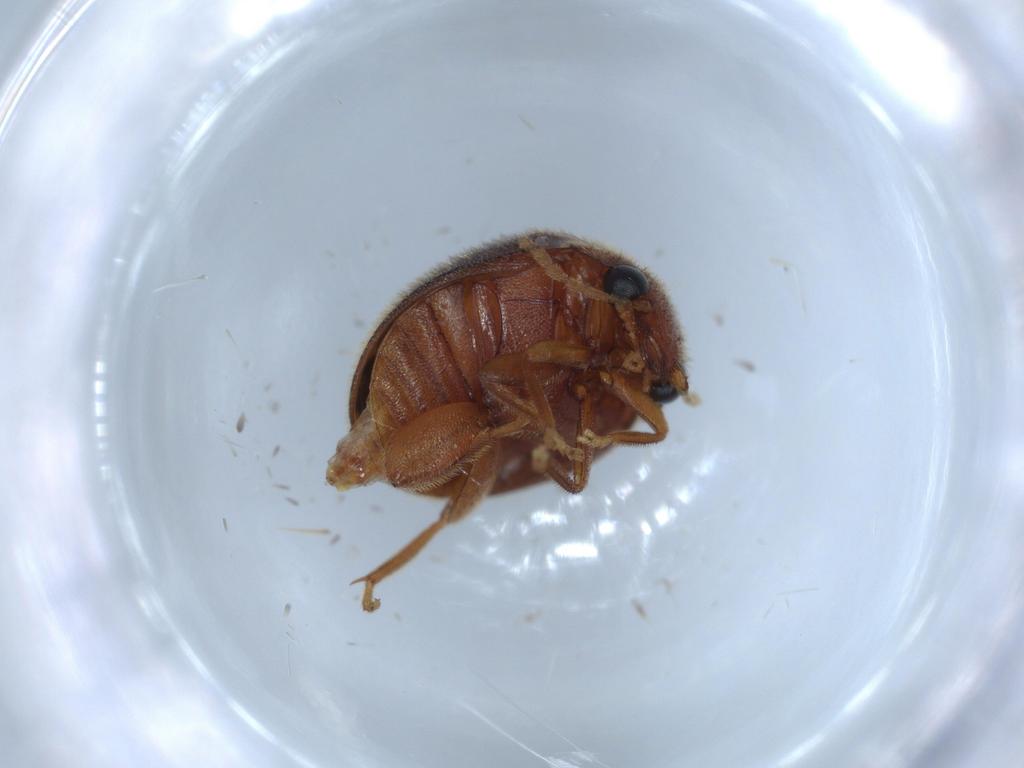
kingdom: Animalia
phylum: Arthropoda
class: Insecta
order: Coleoptera
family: Scirtidae
